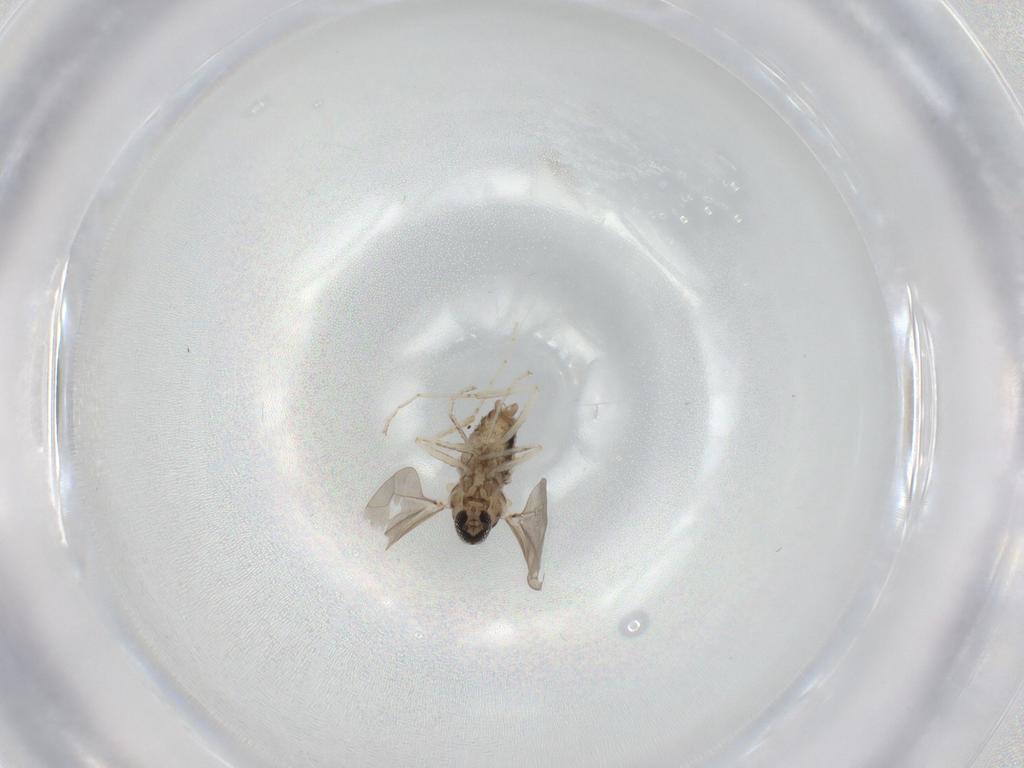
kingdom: Animalia
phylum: Arthropoda
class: Insecta
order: Diptera
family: Cecidomyiidae
